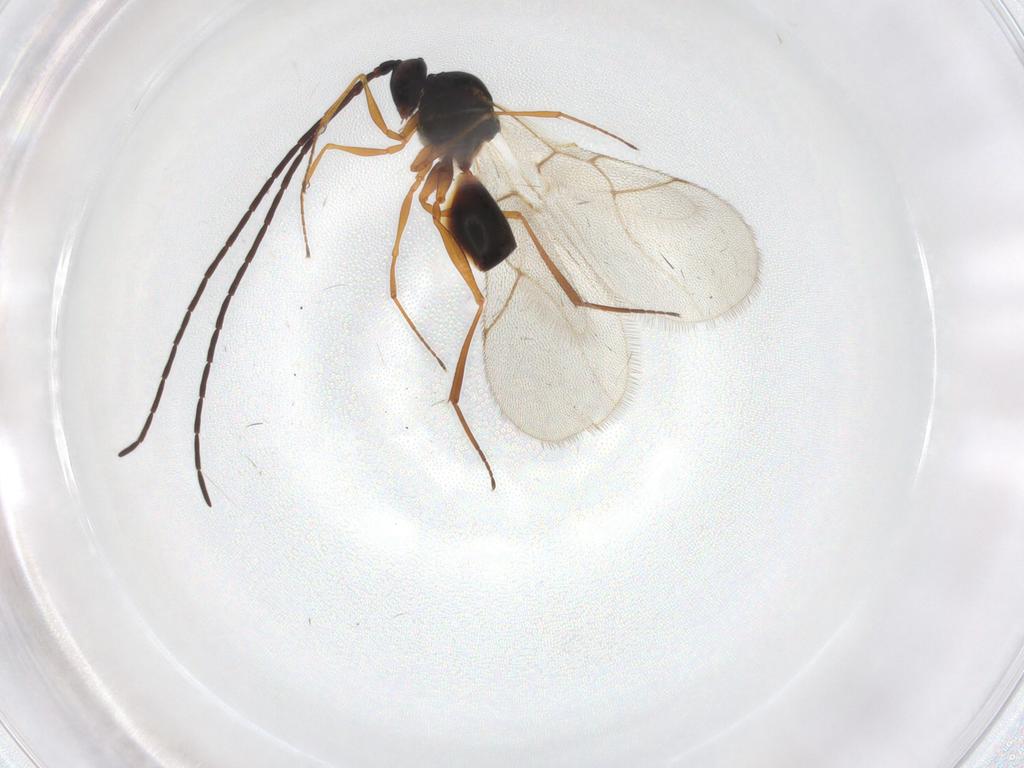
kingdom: Animalia
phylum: Arthropoda
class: Insecta
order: Hymenoptera
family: Figitidae
